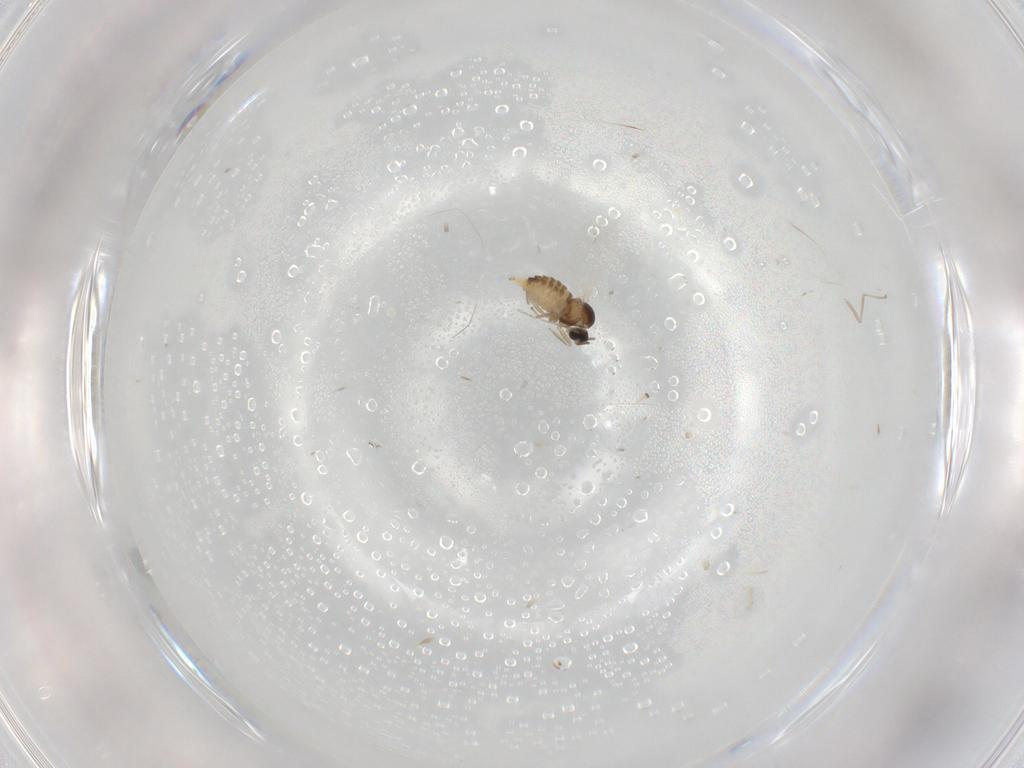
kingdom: Animalia
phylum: Arthropoda
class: Insecta
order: Diptera
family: Cecidomyiidae
